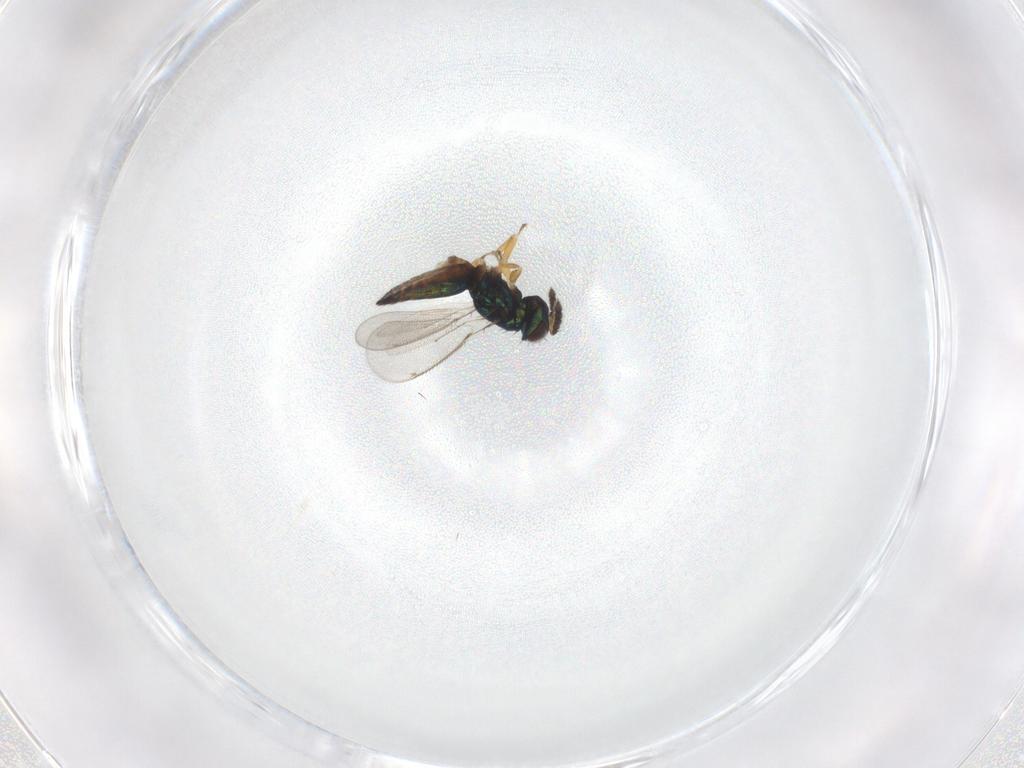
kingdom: Animalia
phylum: Arthropoda
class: Insecta
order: Hymenoptera
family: Eulophidae
